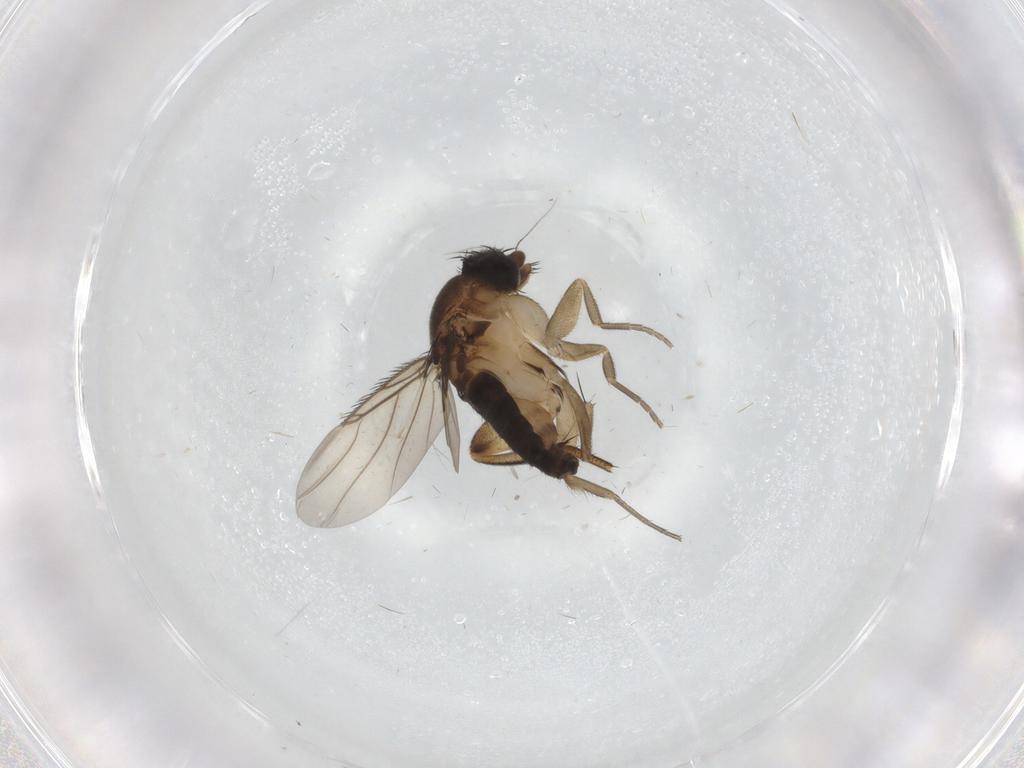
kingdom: Animalia
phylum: Arthropoda
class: Insecta
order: Diptera
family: Phoridae
